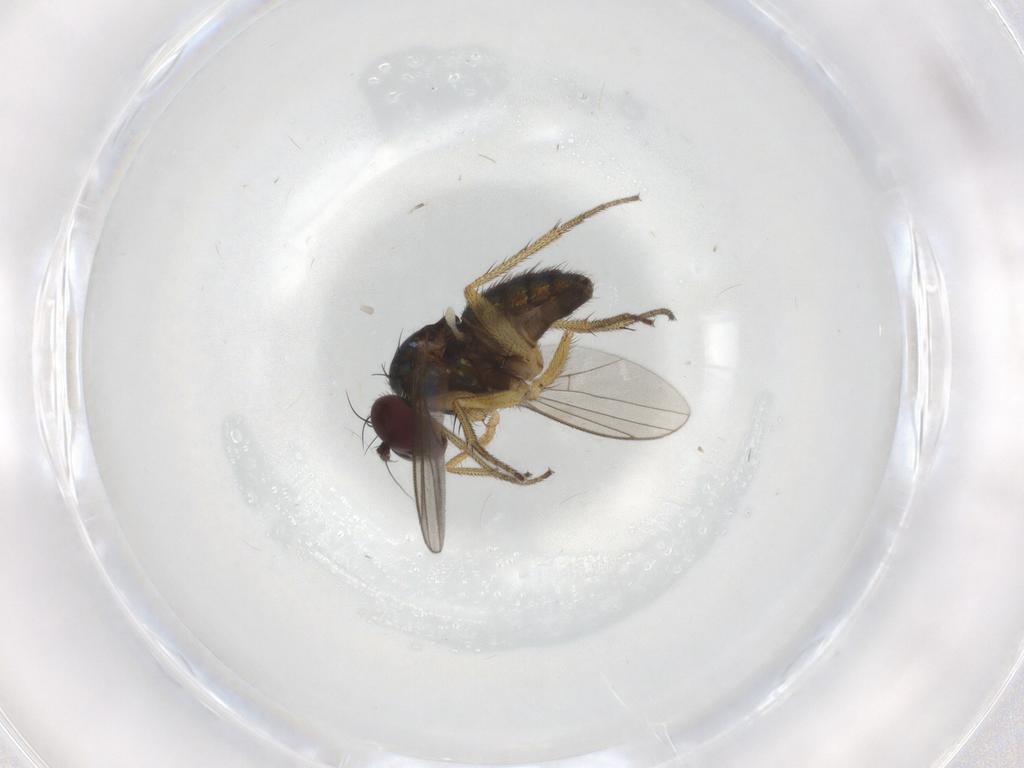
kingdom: Animalia
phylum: Arthropoda
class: Insecta
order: Diptera
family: Dolichopodidae
